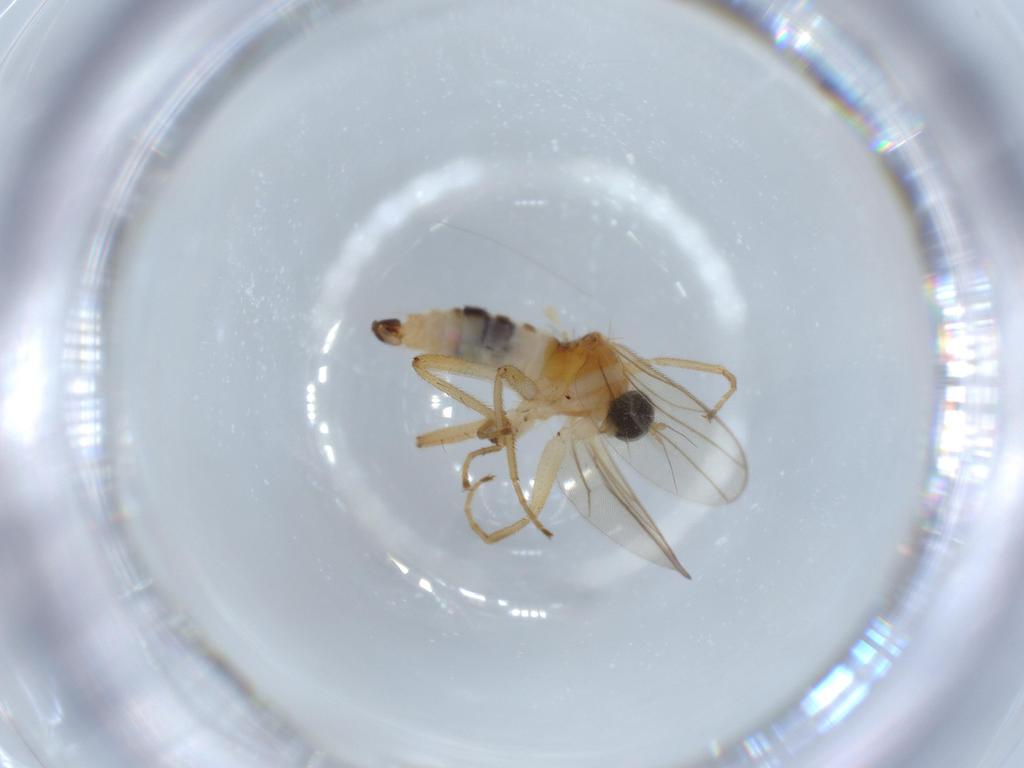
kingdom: Animalia
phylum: Arthropoda
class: Insecta
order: Diptera
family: Hybotidae
